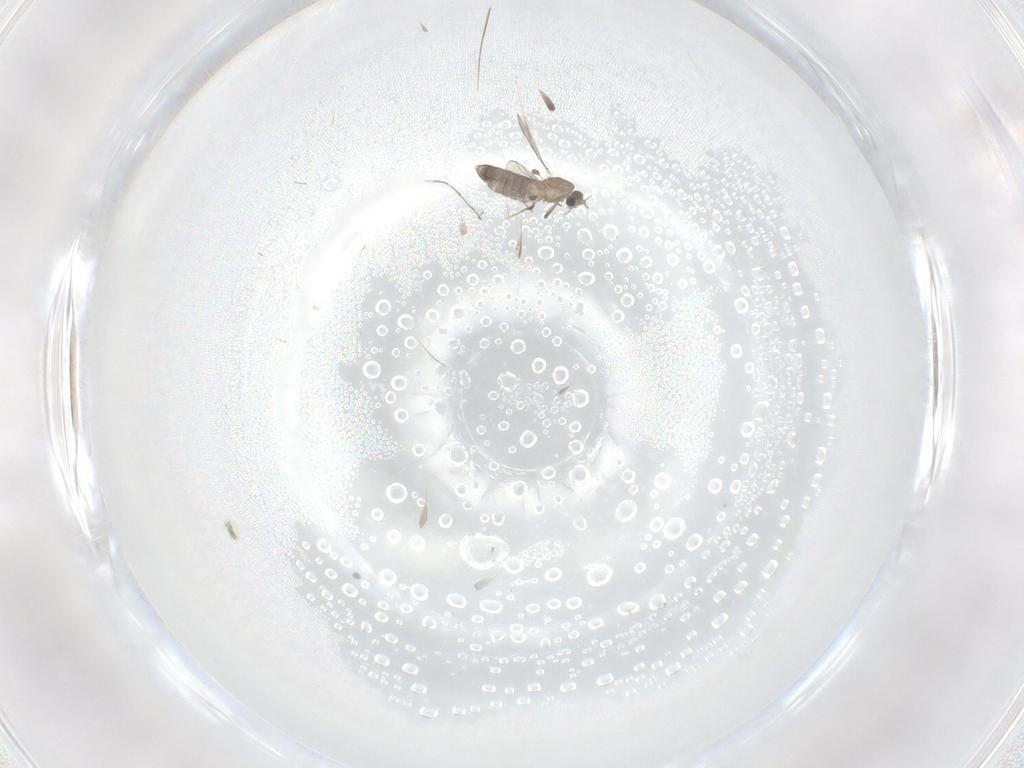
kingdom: Animalia
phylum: Arthropoda
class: Insecta
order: Diptera
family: Chironomidae
